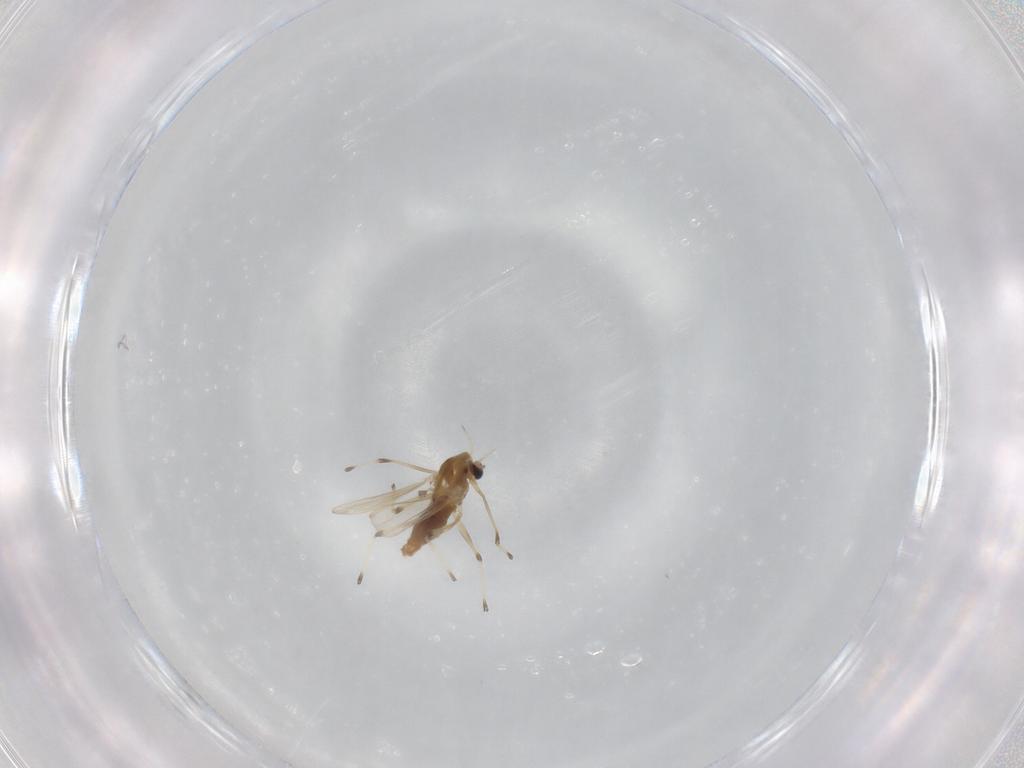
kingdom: Animalia
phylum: Arthropoda
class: Insecta
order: Diptera
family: Chironomidae
